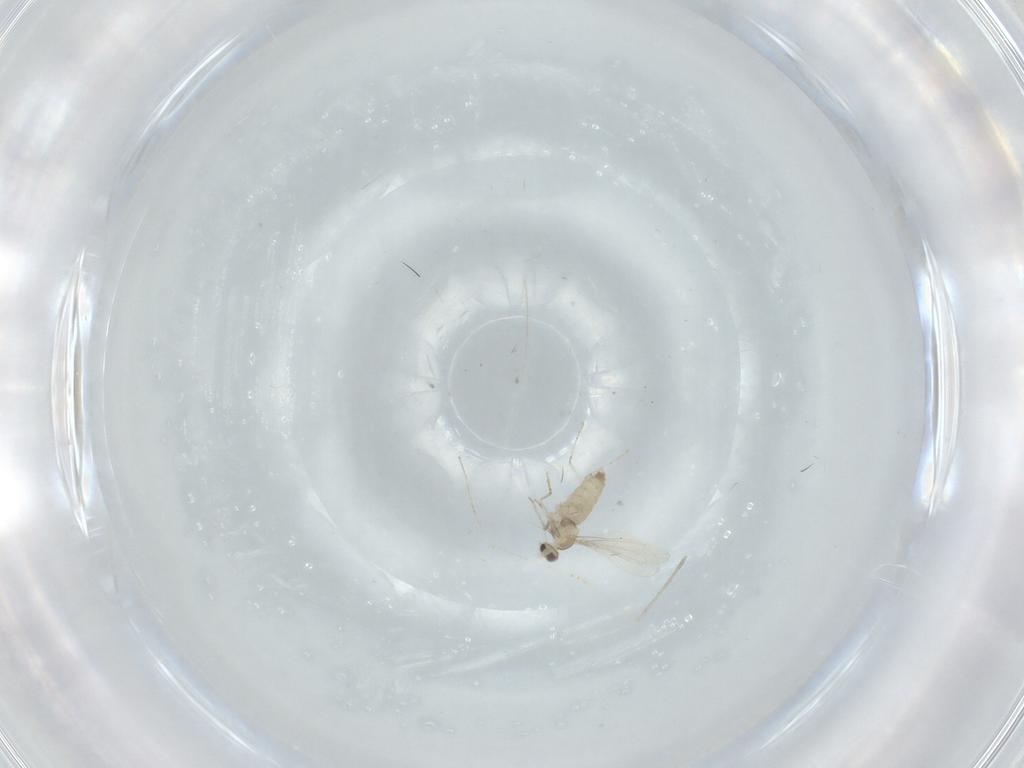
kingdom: Animalia
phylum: Arthropoda
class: Insecta
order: Diptera
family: Cecidomyiidae
